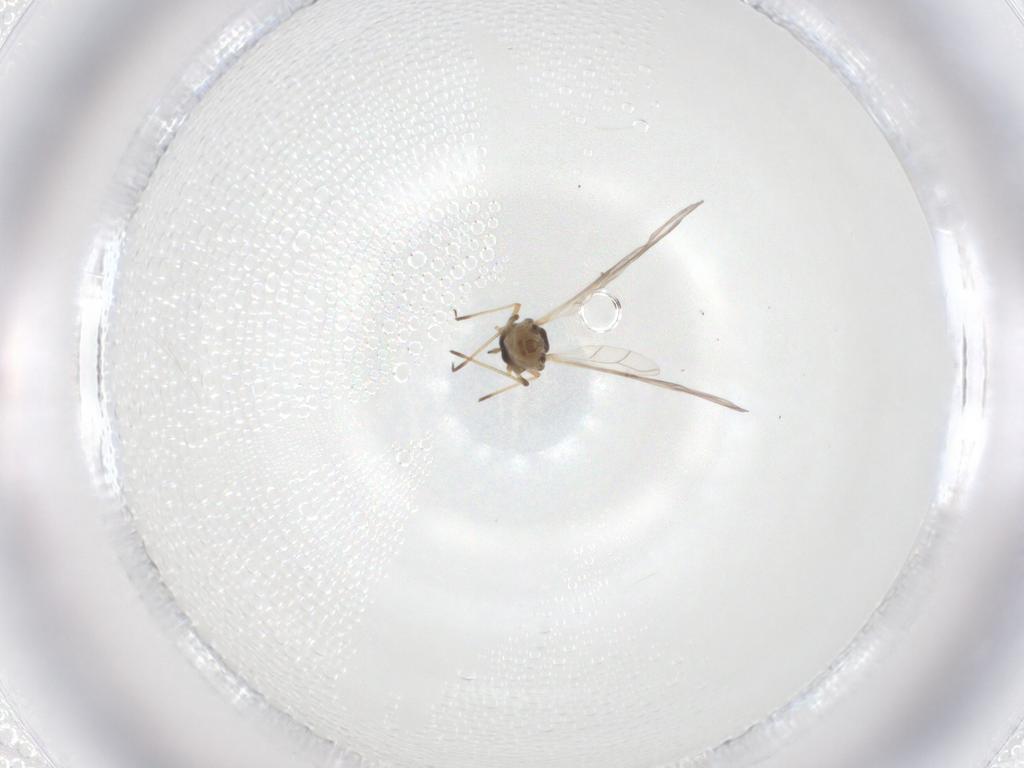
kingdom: Animalia
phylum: Arthropoda
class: Insecta
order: Hemiptera
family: Aphididae
